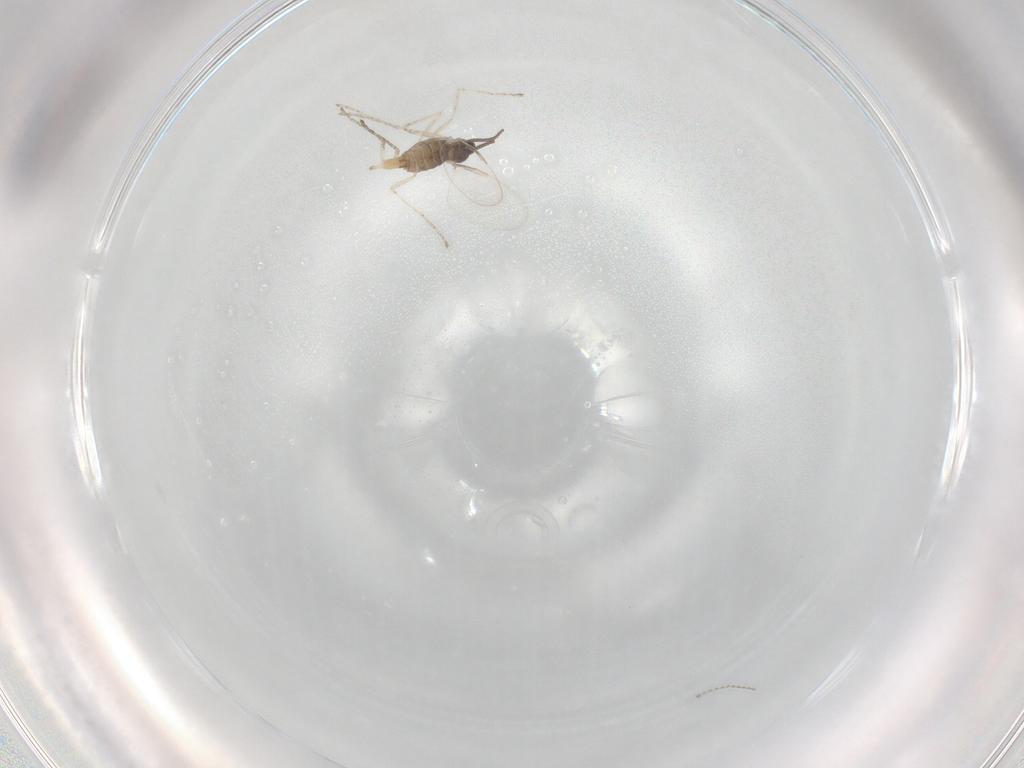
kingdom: Animalia
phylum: Arthropoda
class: Insecta
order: Diptera
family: Cecidomyiidae
